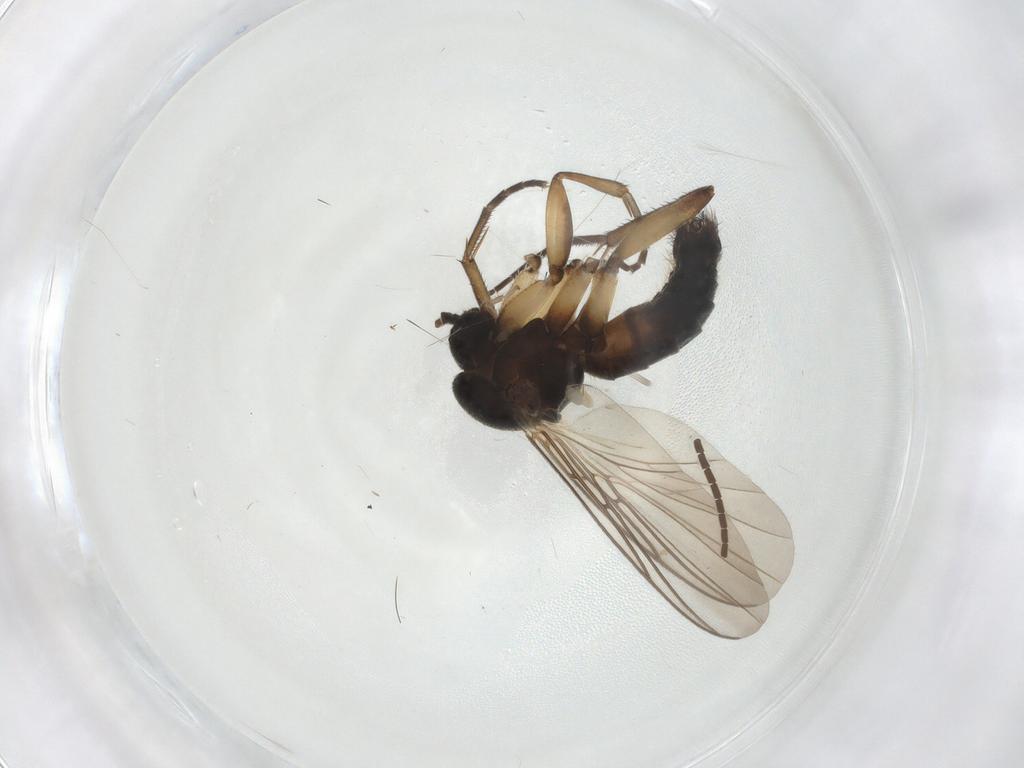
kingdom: Animalia
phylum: Arthropoda
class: Insecta
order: Diptera
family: Mycetophilidae
